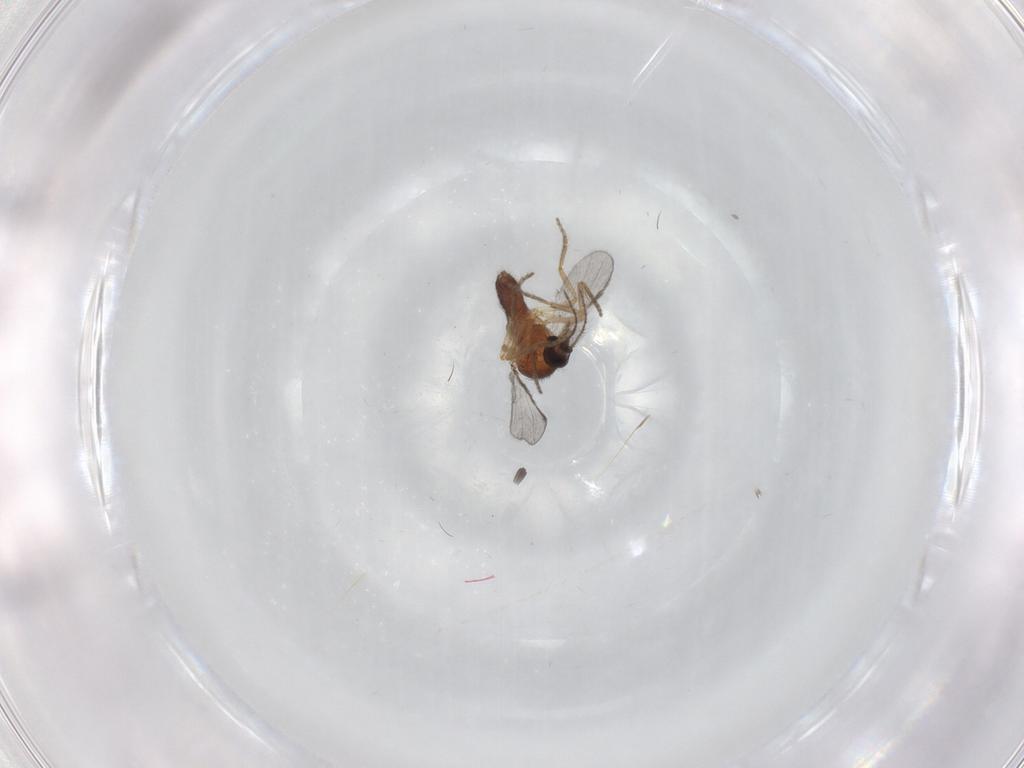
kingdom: Animalia
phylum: Arthropoda
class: Insecta
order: Diptera
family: Ceratopogonidae
